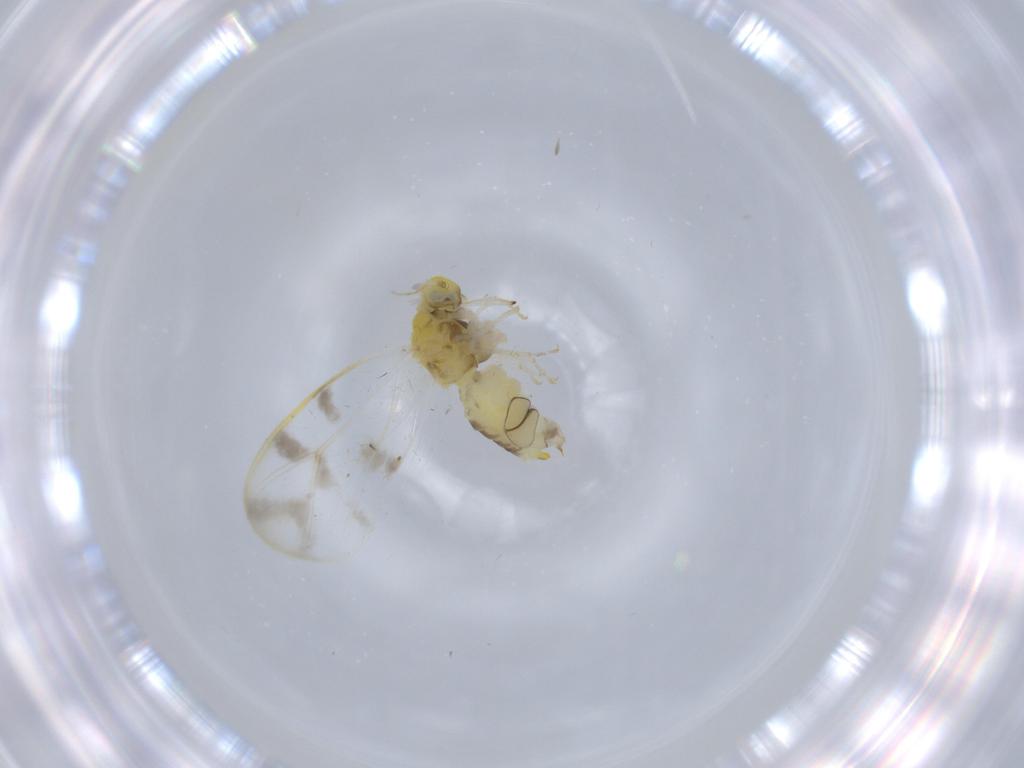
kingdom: Animalia
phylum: Arthropoda
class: Insecta
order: Hemiptera
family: Aleyrodidae
